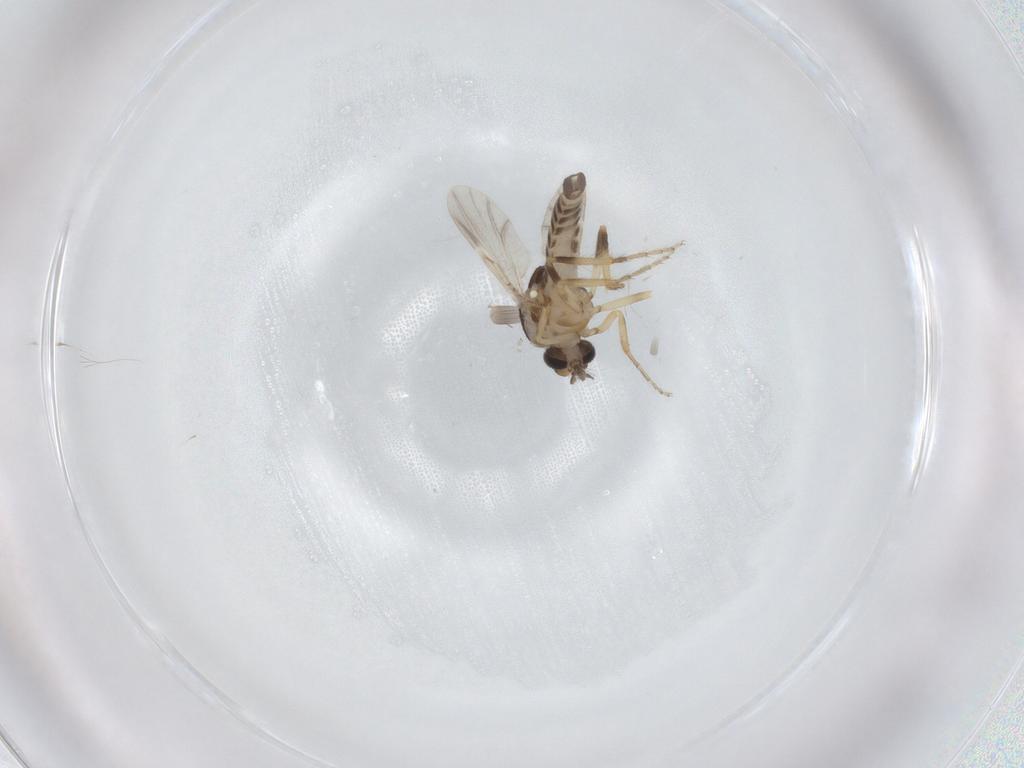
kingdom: Animalia
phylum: Arthropoda
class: Insecta
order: Diptera
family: Ceratopogonidae
